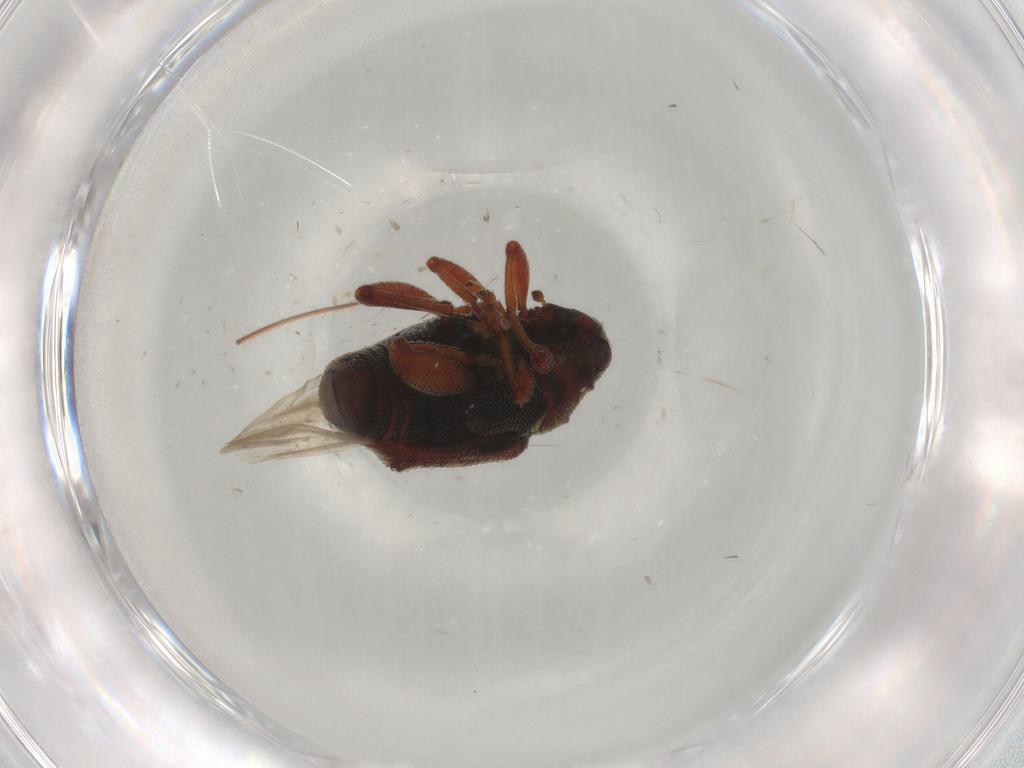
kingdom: Animalia
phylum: Arthropoda
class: Insecta
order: Coleoptera
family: Curculionidae
